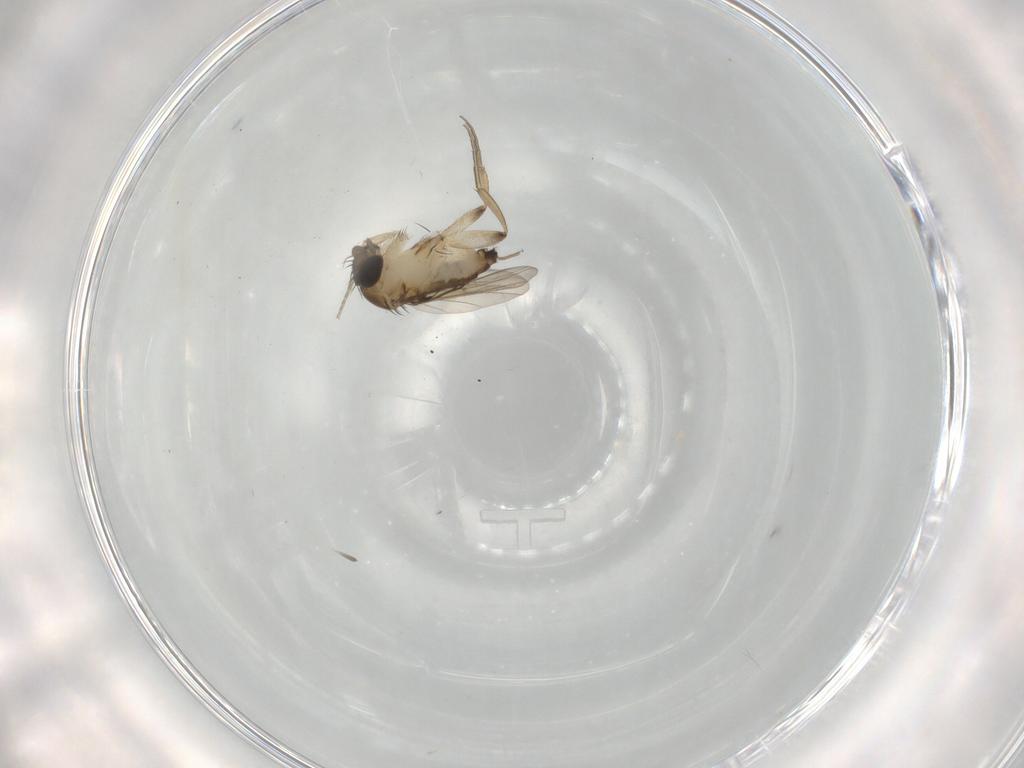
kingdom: Animalia
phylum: Arthropoda
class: Insecta
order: Diptera
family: Phoridae
